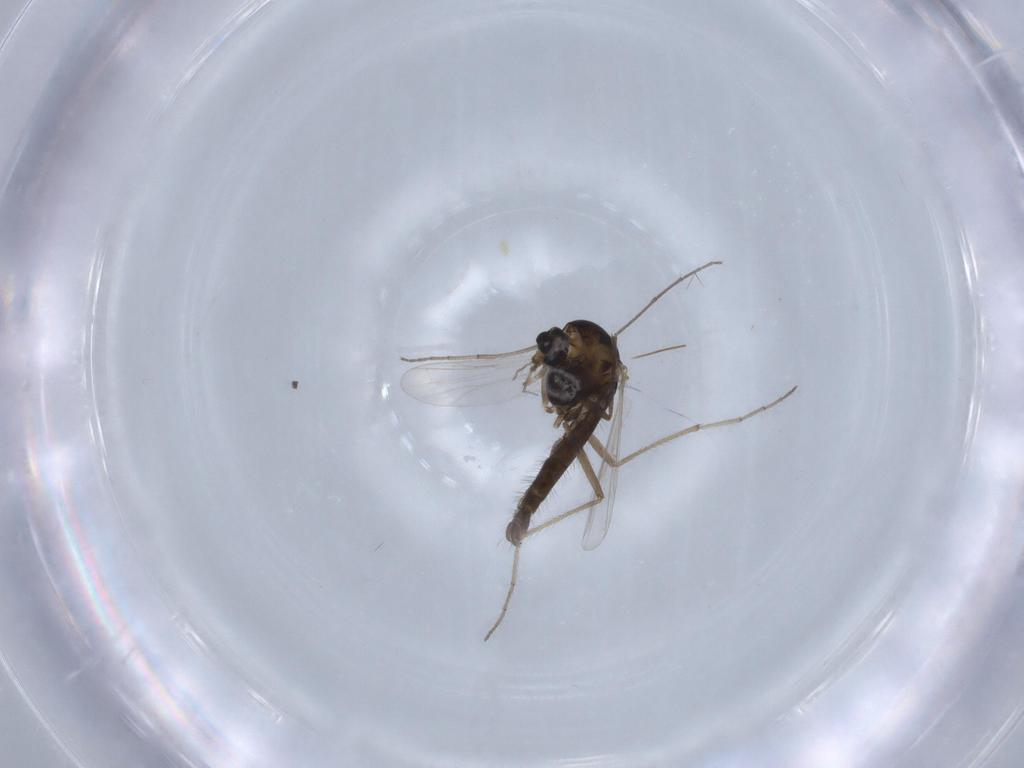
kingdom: Animalia
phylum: Arthropoda
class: Insecta
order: Diptera
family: Chironomidae
